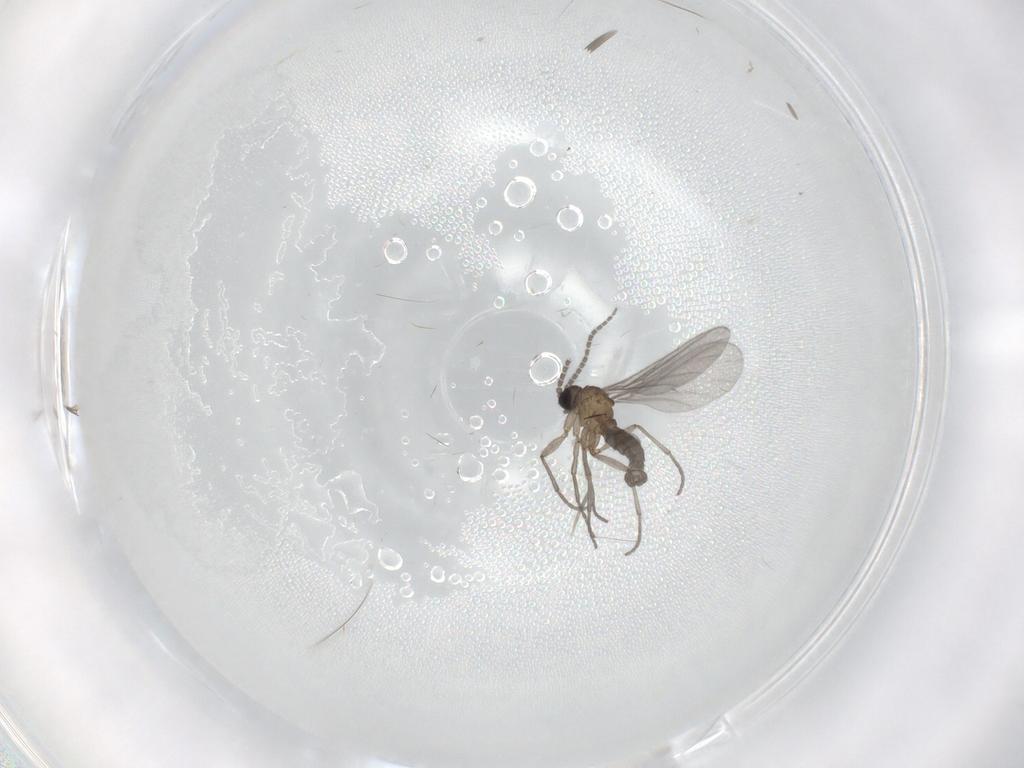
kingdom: Animalia
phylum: Arthropoda
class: Insecta
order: Diptera
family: Sciaridae
